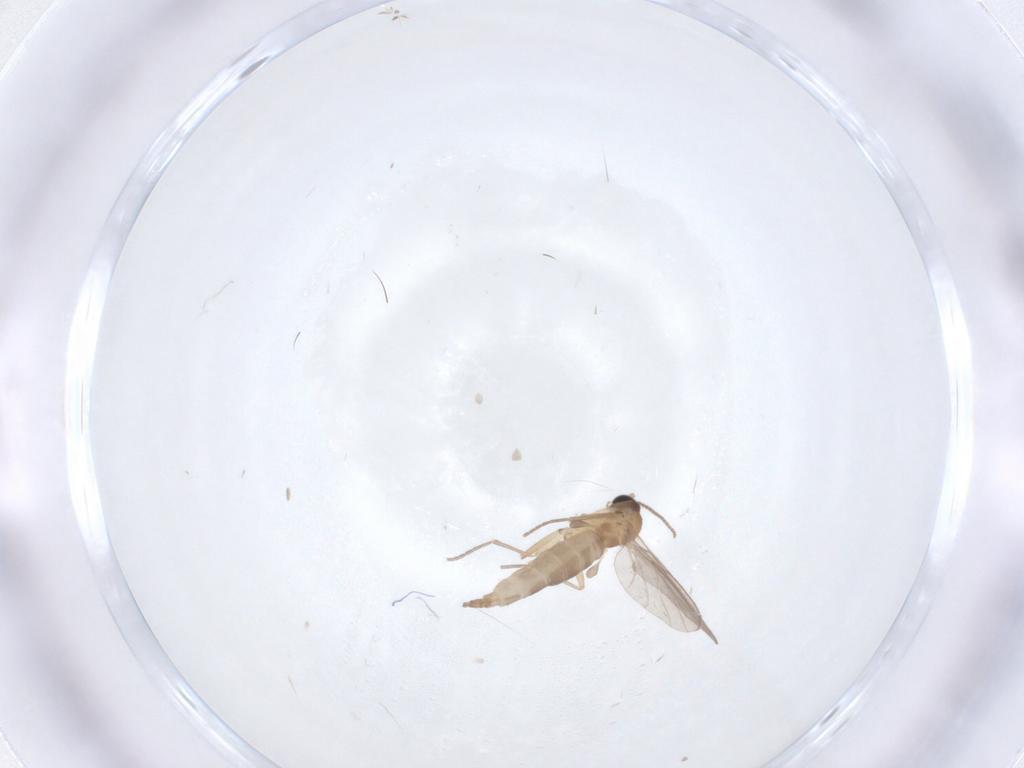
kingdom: Animalia
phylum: Arthropoda
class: Insecta
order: Diptera
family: Sciaridae
